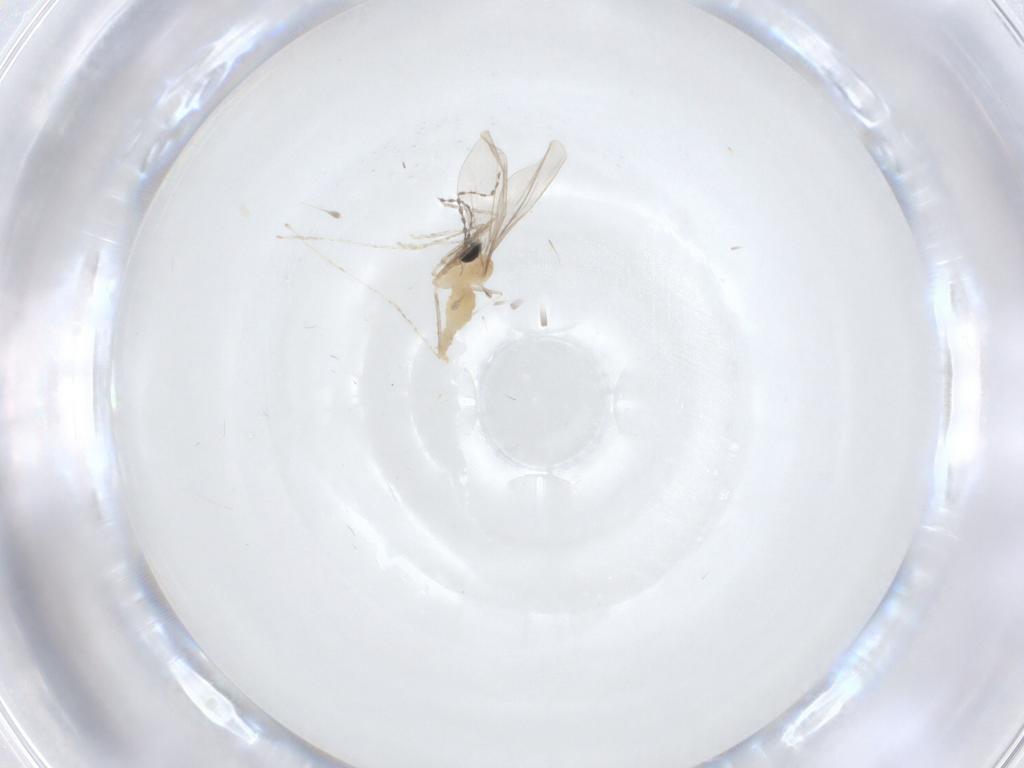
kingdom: Animalia
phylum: Arthropoda
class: Insecta
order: Diptera
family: Cecidomyiidae
